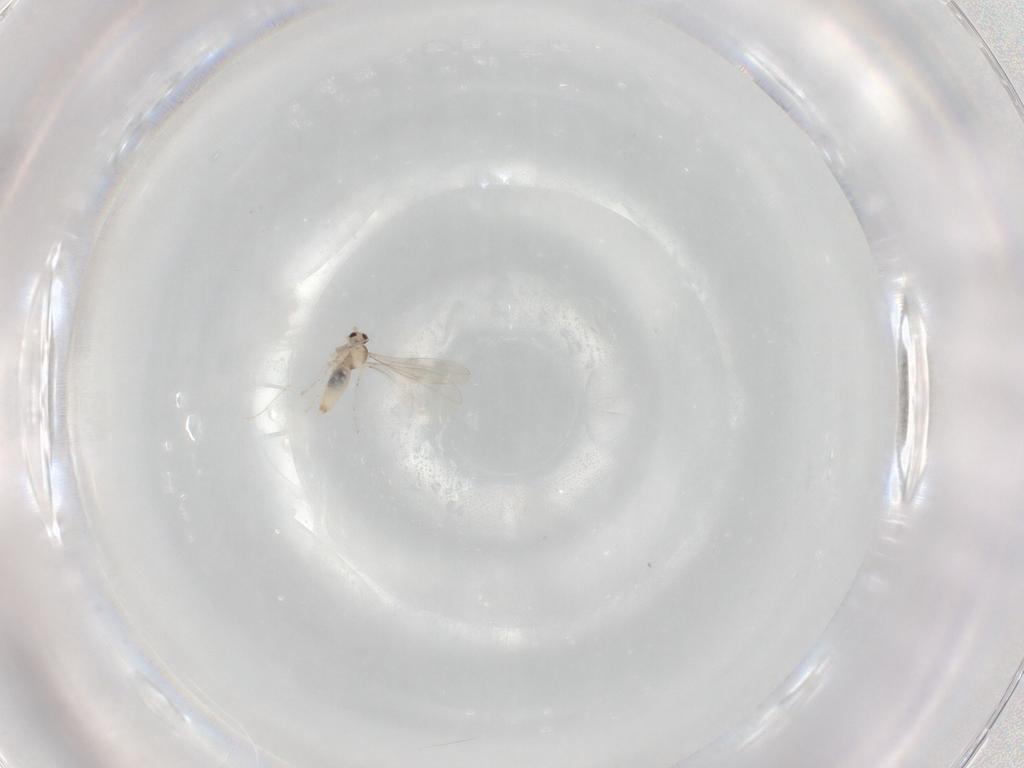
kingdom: Animalia
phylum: Arthropoda
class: Insecta
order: Diptera
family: Cecidomyiidae
